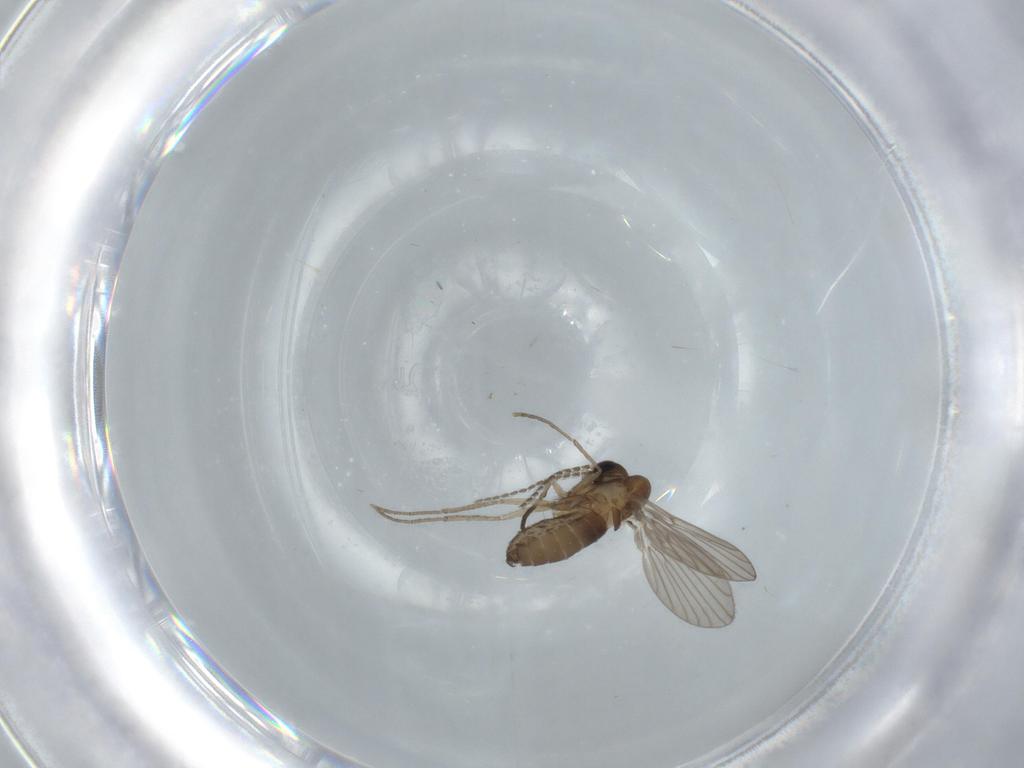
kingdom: Animalia
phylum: Arthropoda
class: Insecta
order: Diptera
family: Psychodidae
